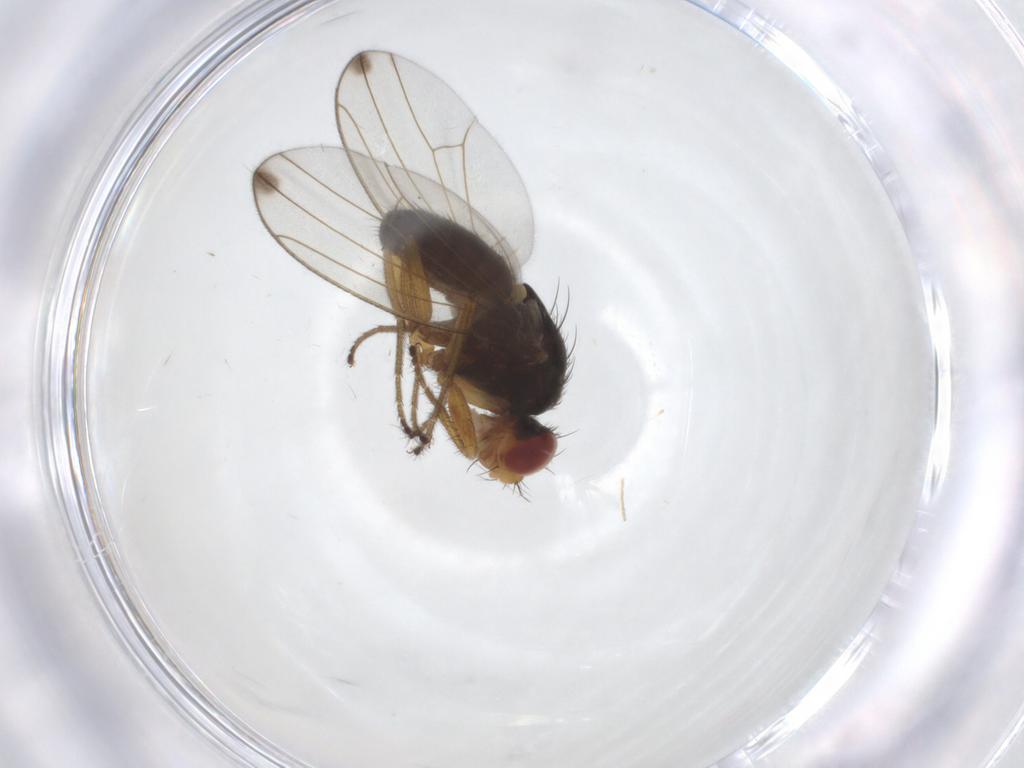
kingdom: Animalia
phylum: Arthropoda
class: Insecta
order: Diptera
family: Drosophilidae
